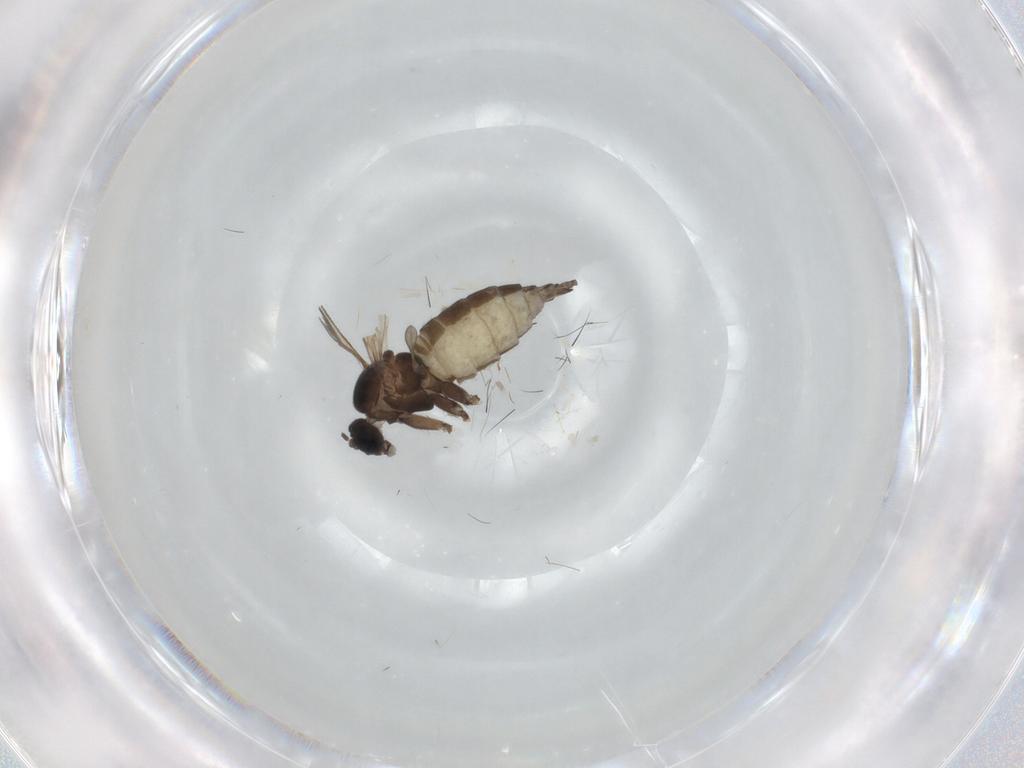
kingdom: Animalia
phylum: Arthropoda
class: Insecta
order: Diptera
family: Sciaridae
